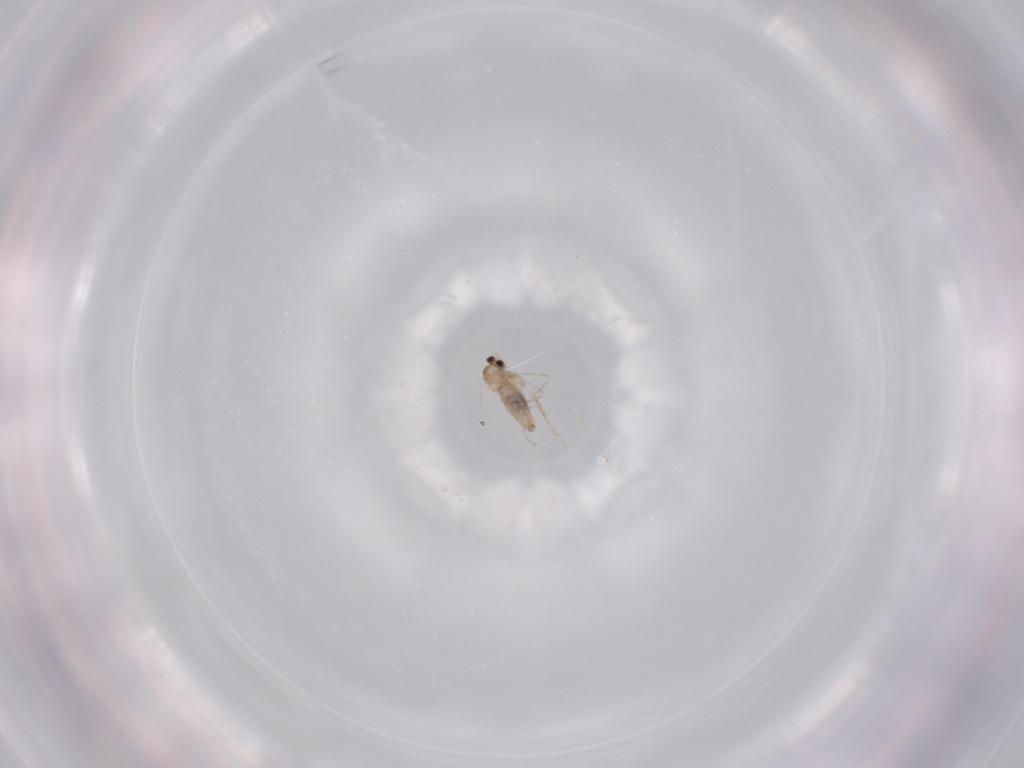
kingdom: Animalia
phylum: Arthropoda
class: Insecta
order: Diptera
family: Cecidomyiidae
